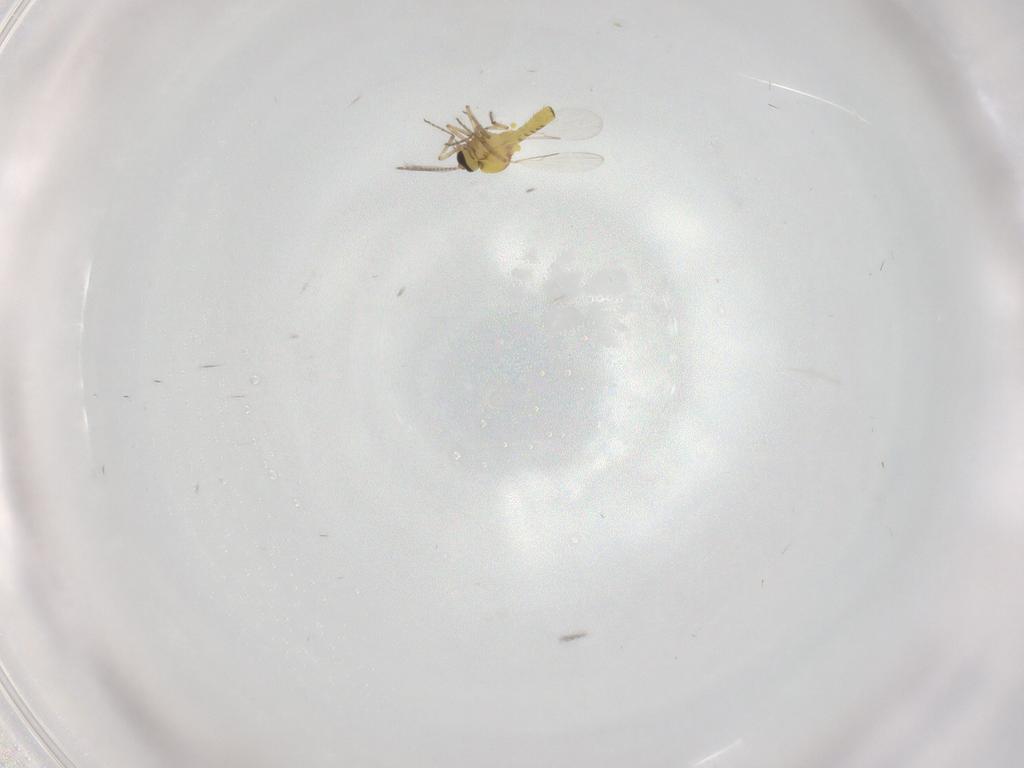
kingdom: Animalia
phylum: Arthropoda
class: Insecta
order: Diptera
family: Ceratopogonidae
